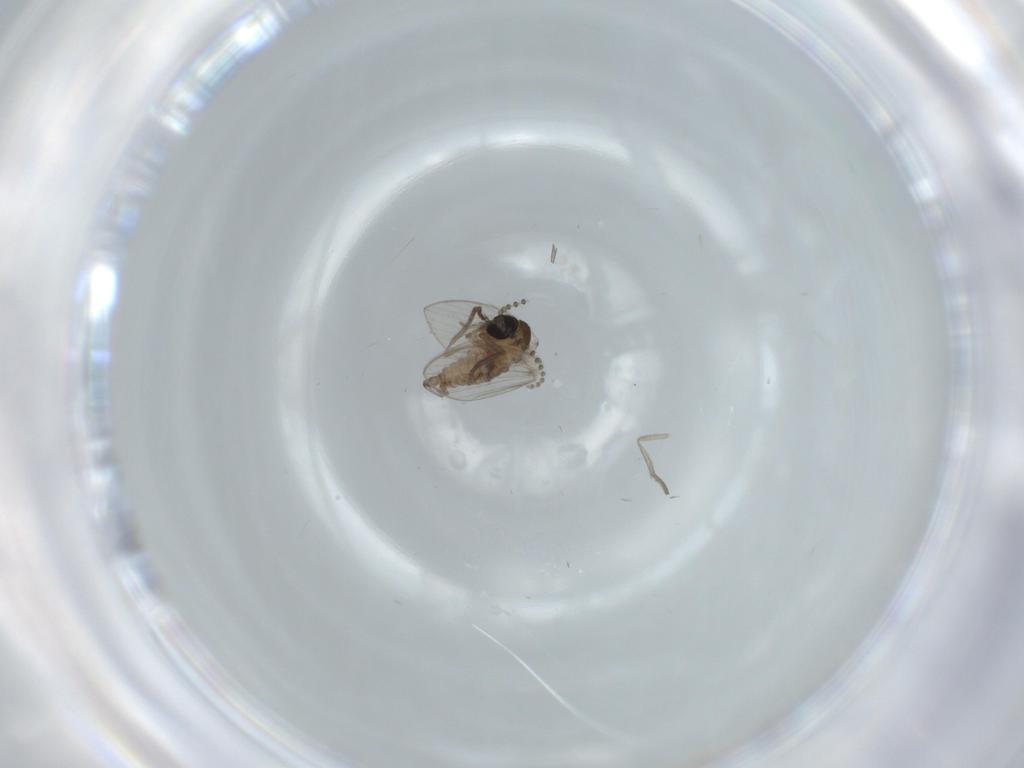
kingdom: Animalia
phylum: Arthropoda
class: Insecta
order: Diptera
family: Psychodidae
